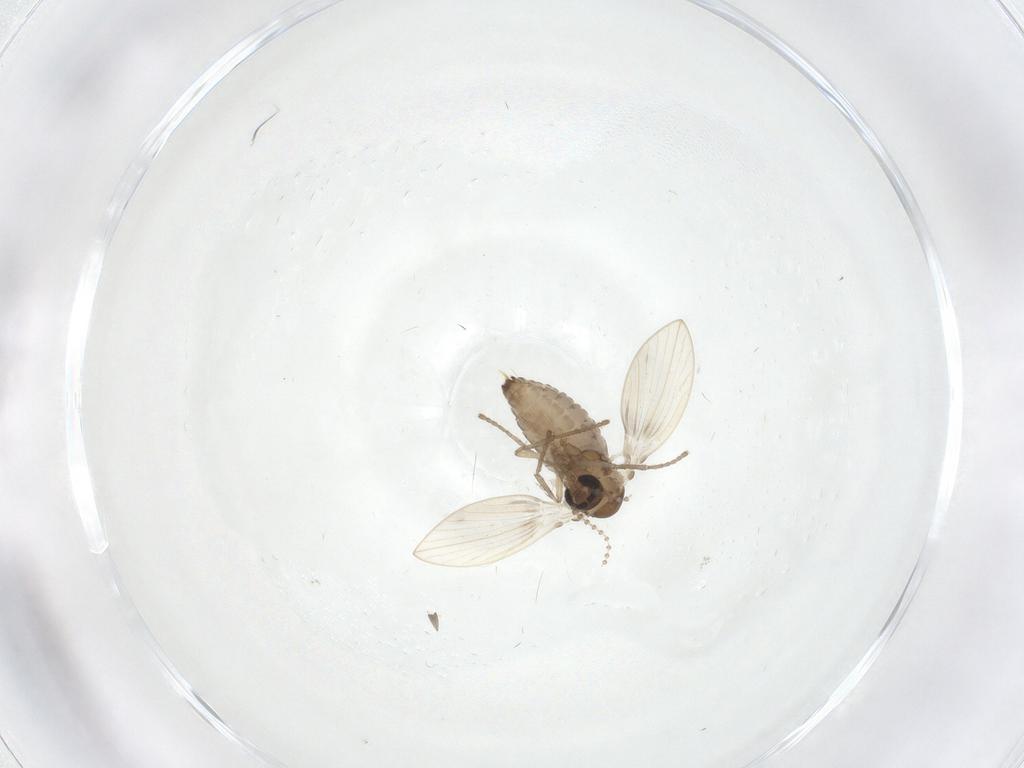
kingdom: Animalia
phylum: Arthropoda
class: Insecta
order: Diptera
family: Psychodidae
